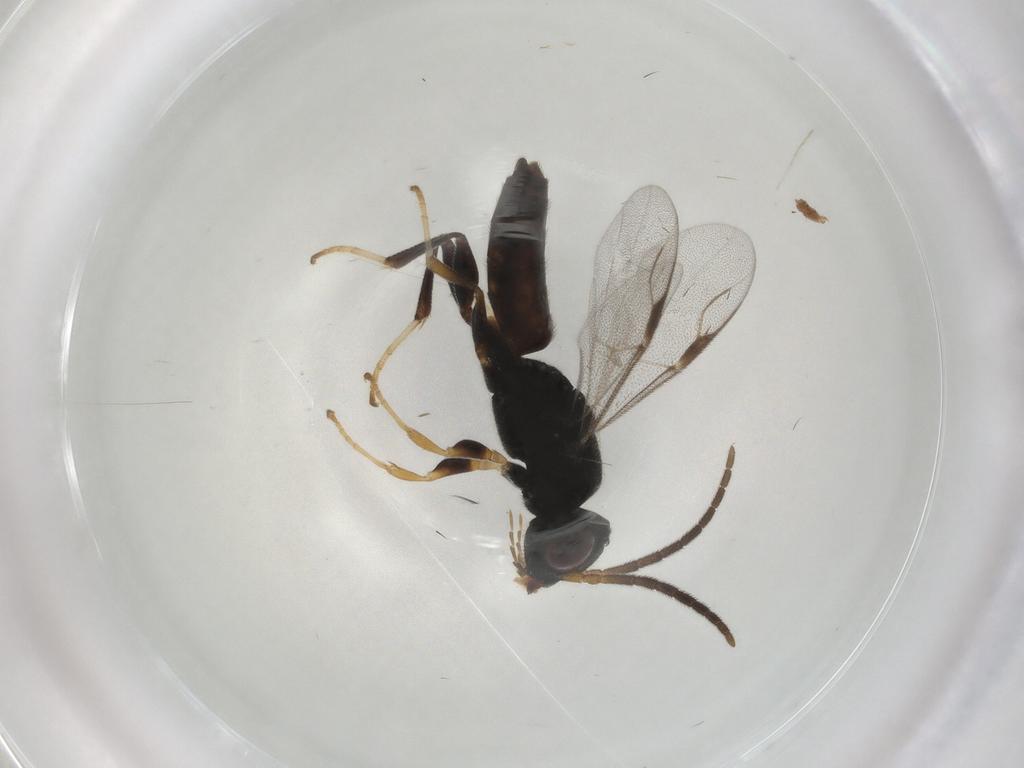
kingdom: Animalia
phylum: Arthropoda
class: Insecta
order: Hymenoptera
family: Dryinidae
